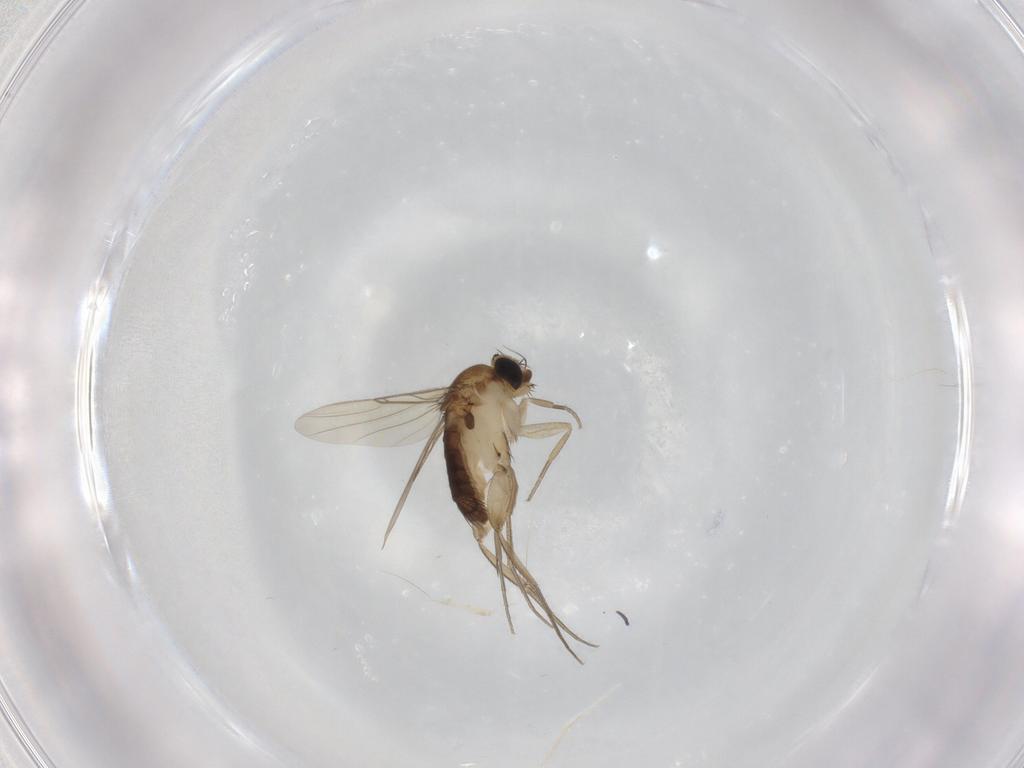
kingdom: Animalia
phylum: Arthropoda
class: Insecta
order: Diptera
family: Phoridae
